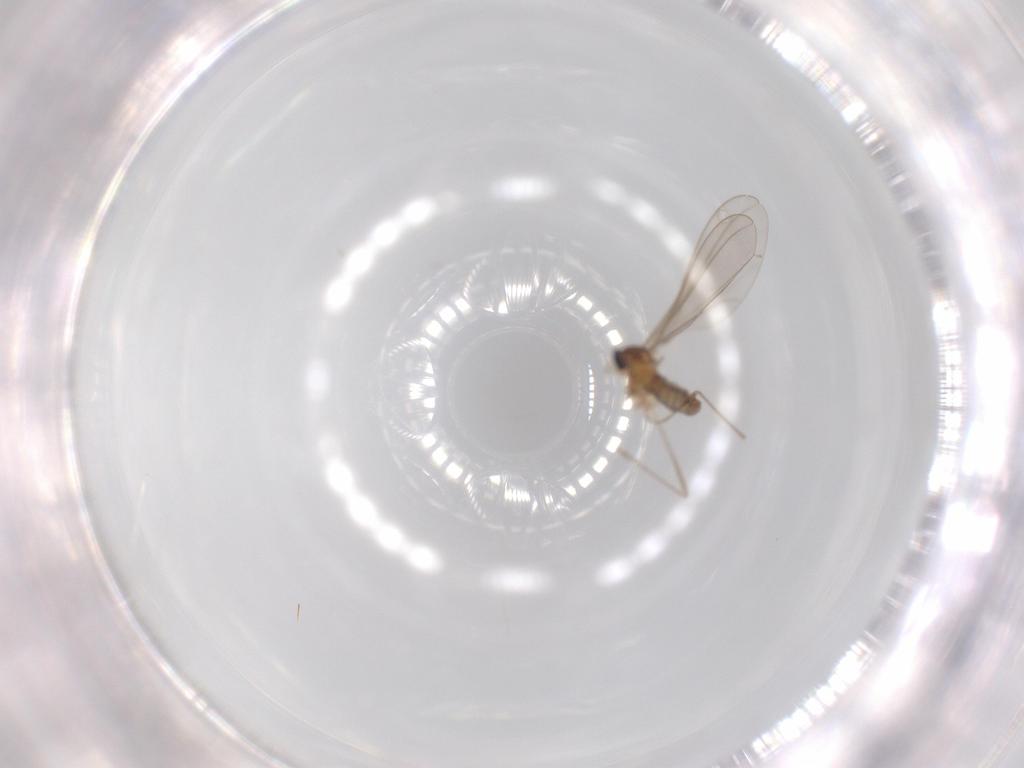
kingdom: Animalia
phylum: Arthropoda
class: Insecta
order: Diptera
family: Cecidomyiidae
